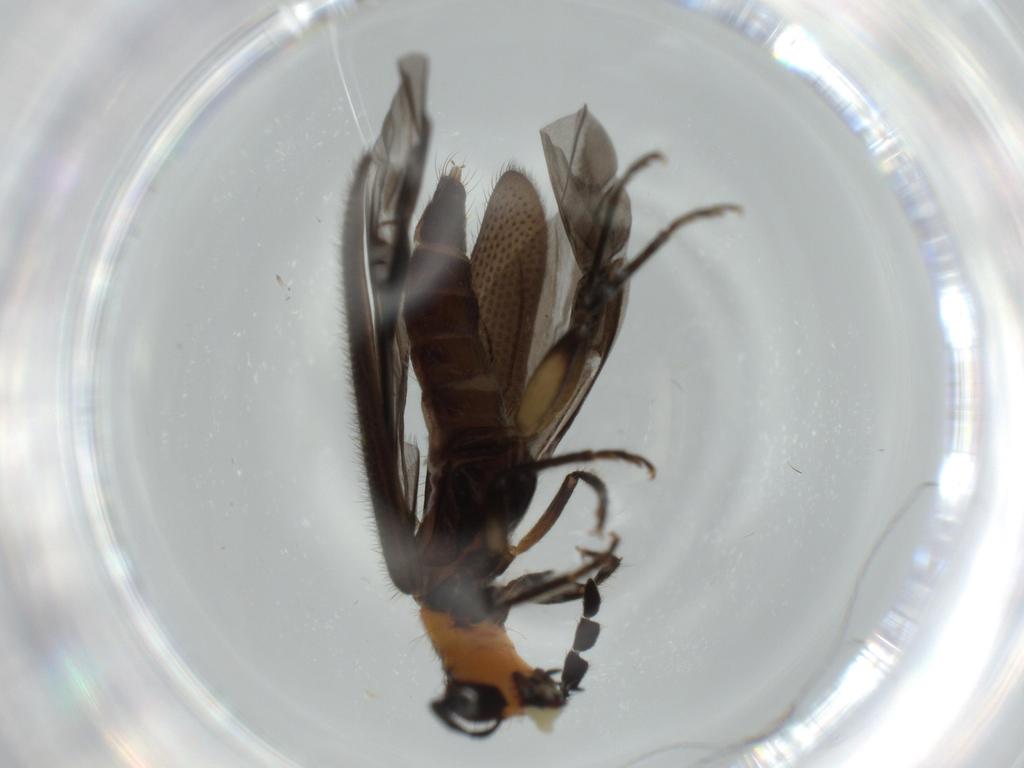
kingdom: Animalia
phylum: Arthropoda
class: Insecta
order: Coleoptera
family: Cleridae
